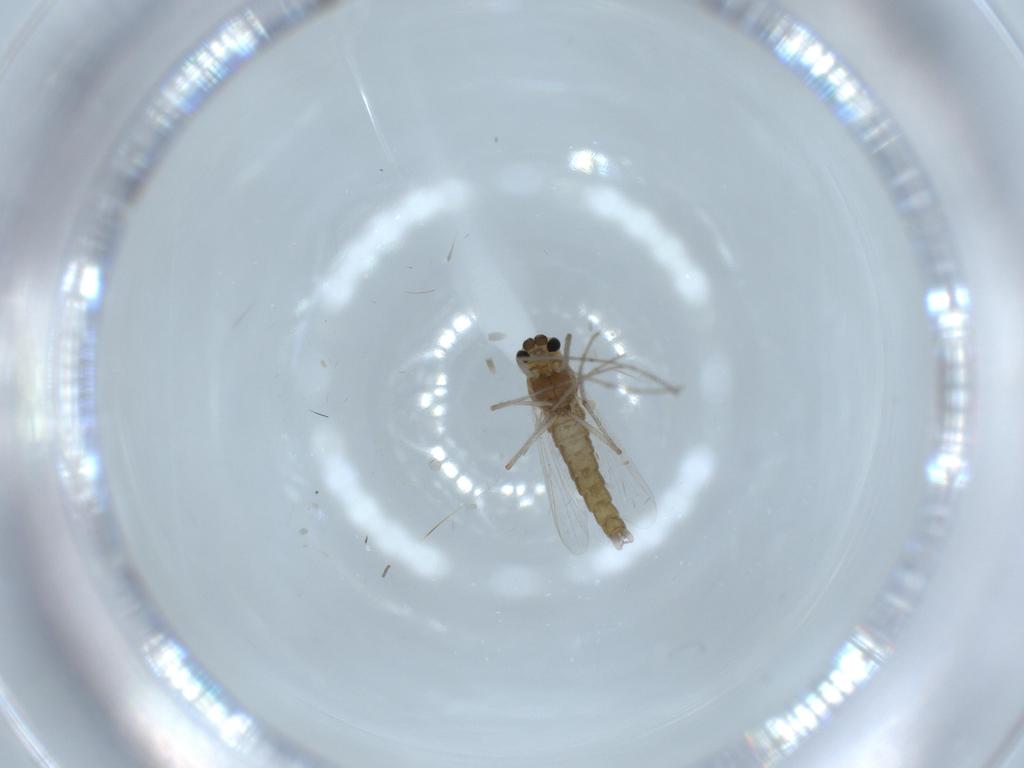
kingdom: Animalia
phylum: Arthropoda
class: Insecta
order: Diptera
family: Chironomidae
